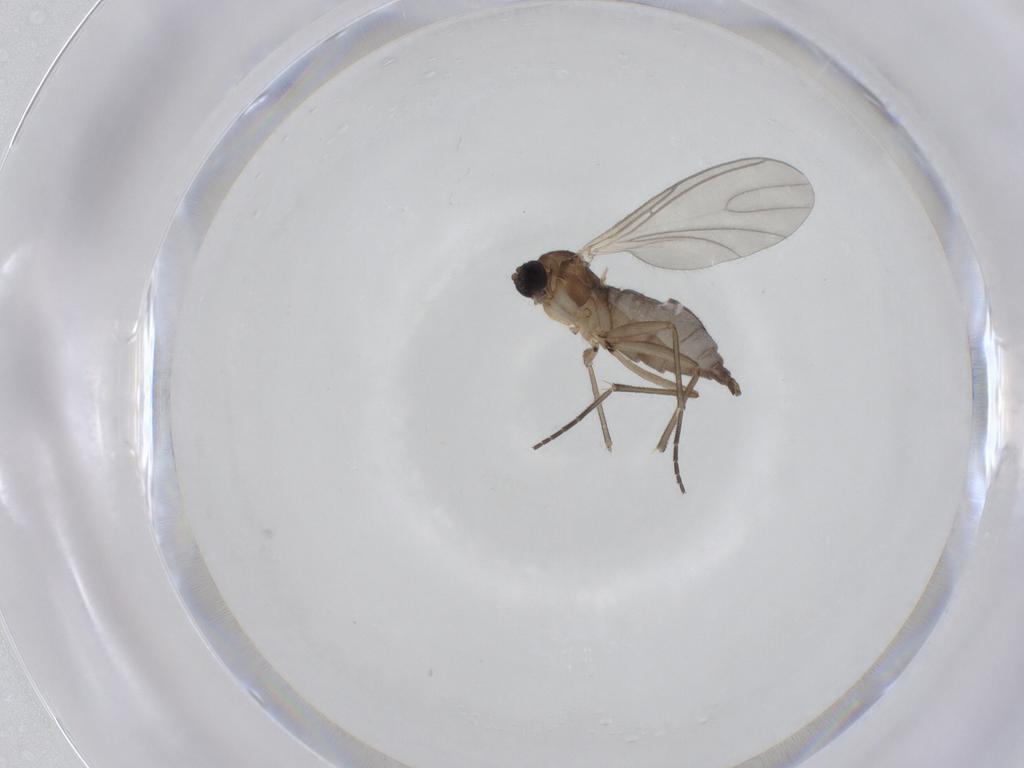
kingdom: Animalia
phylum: Arthropoda
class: Insecta
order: Diptera
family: Sciaridae
